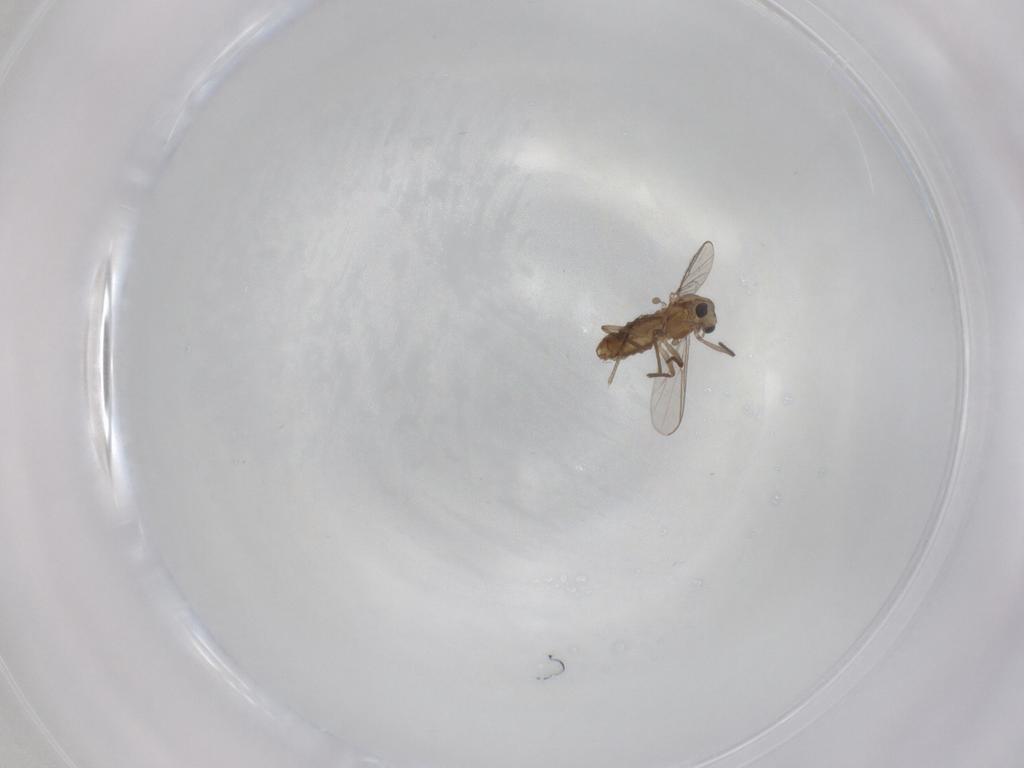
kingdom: Animalia
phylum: Arthropoda
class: Insecta
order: Diptera
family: Chironomidae
